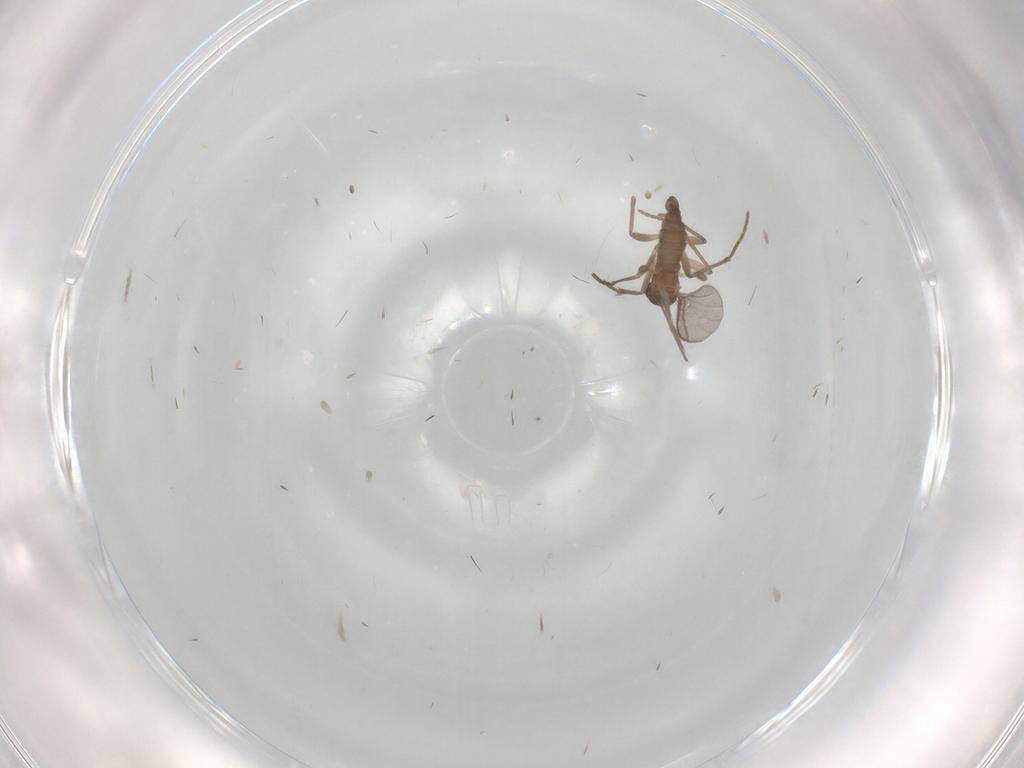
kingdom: Animalia
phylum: Arthropoda
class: Insecta
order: Diptera
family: Ceratopogonidae
